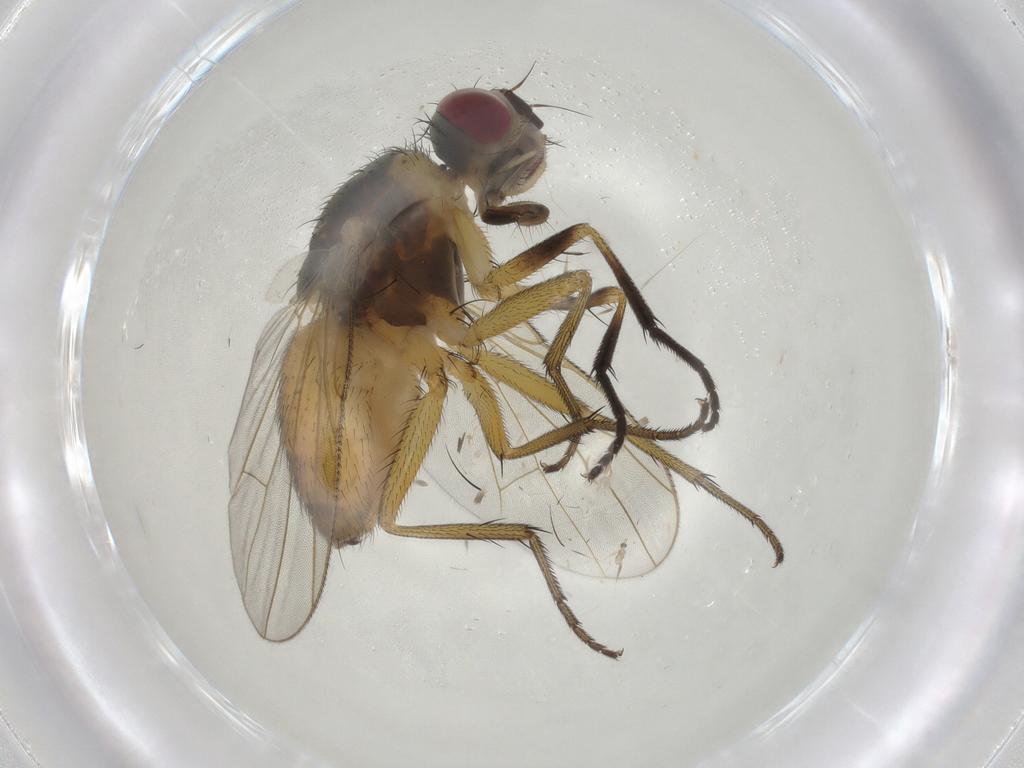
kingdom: Animalia
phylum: Arthropoda
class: Insecta
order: Diptera
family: Muscidae
